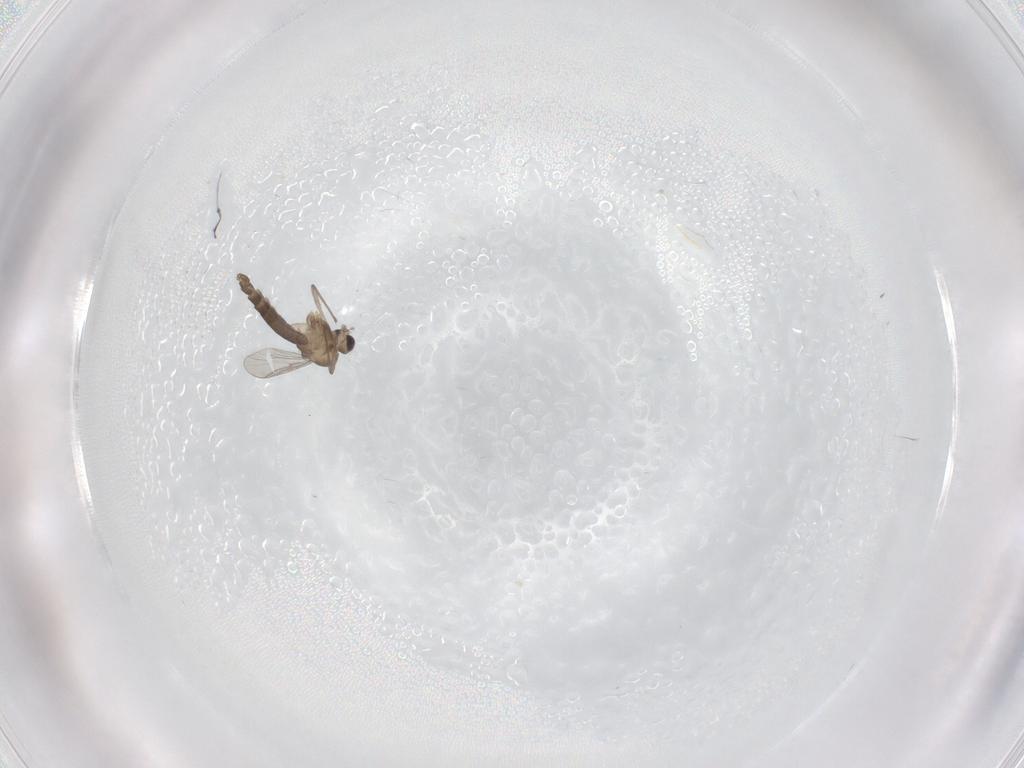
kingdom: Animalia
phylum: Arthropoda
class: Insecta
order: Diptera
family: Chironomidae
